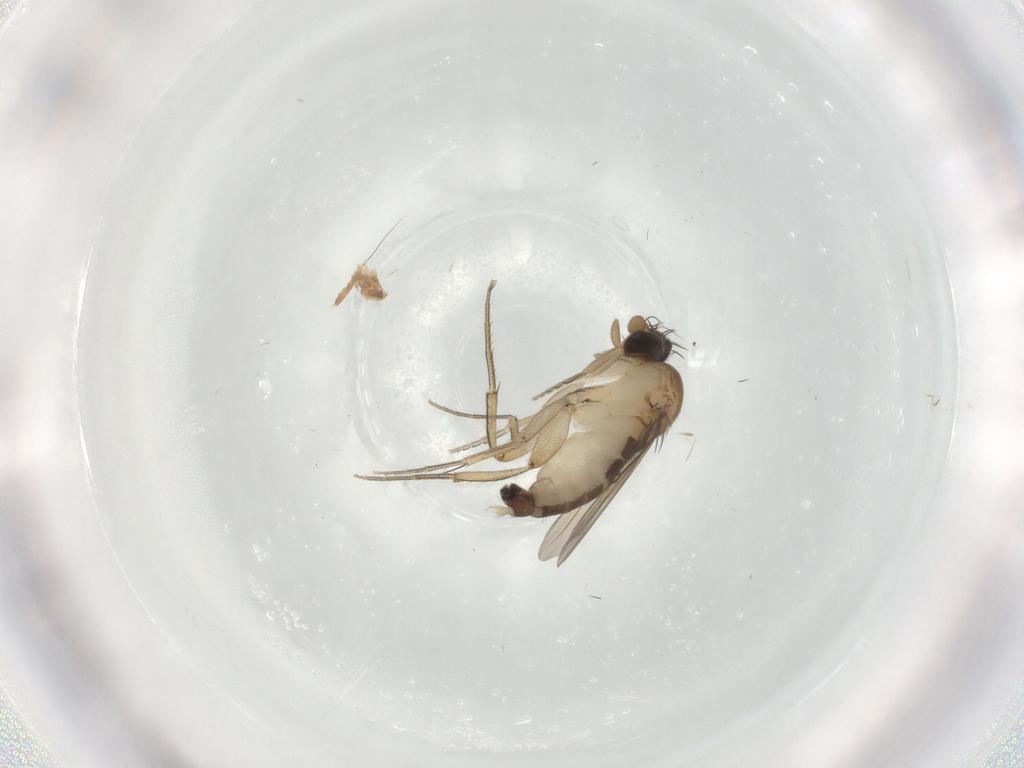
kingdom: Animalia
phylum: Arthropoda
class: Insecta
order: Diptera
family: Phoridae
